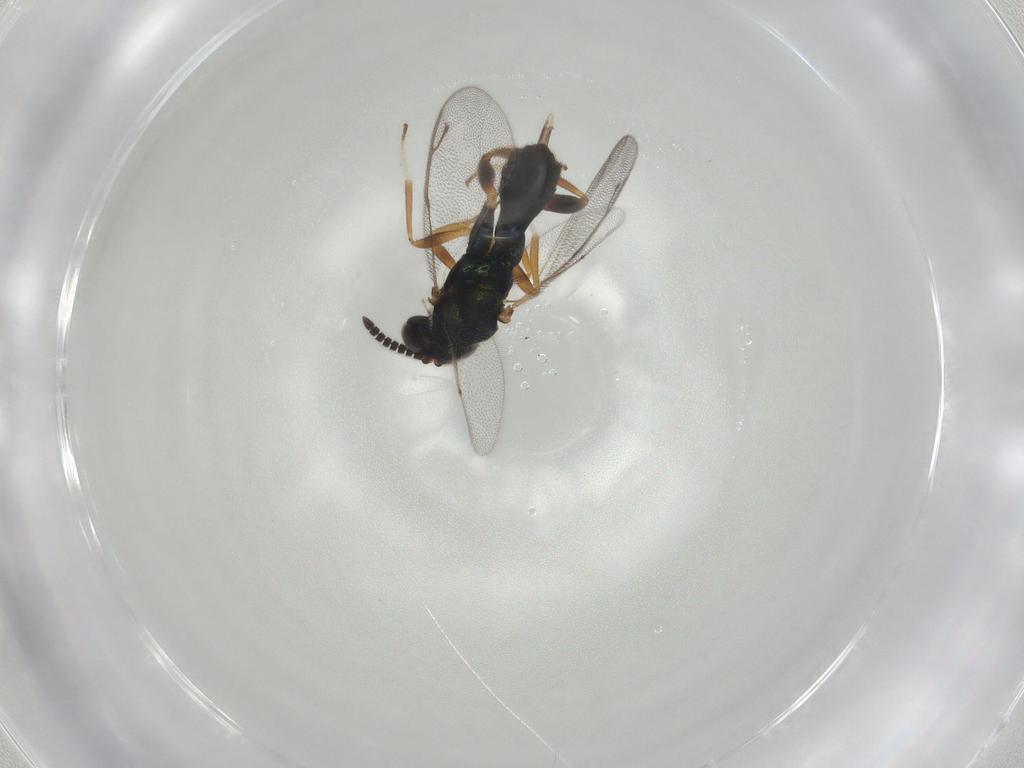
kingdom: Animalia
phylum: Arthropoda
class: Insecta
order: Hymenoptera
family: Cleonyminae
